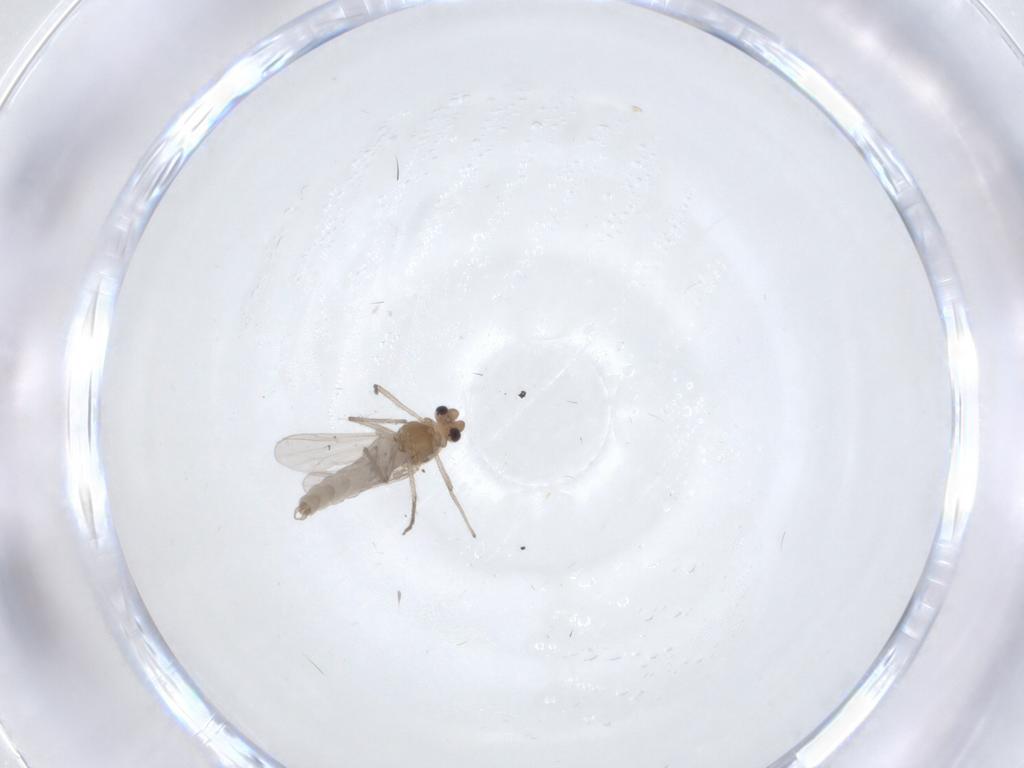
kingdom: Animalia
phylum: Arthropoda
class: Insecta
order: Diptera
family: Chironomidae
